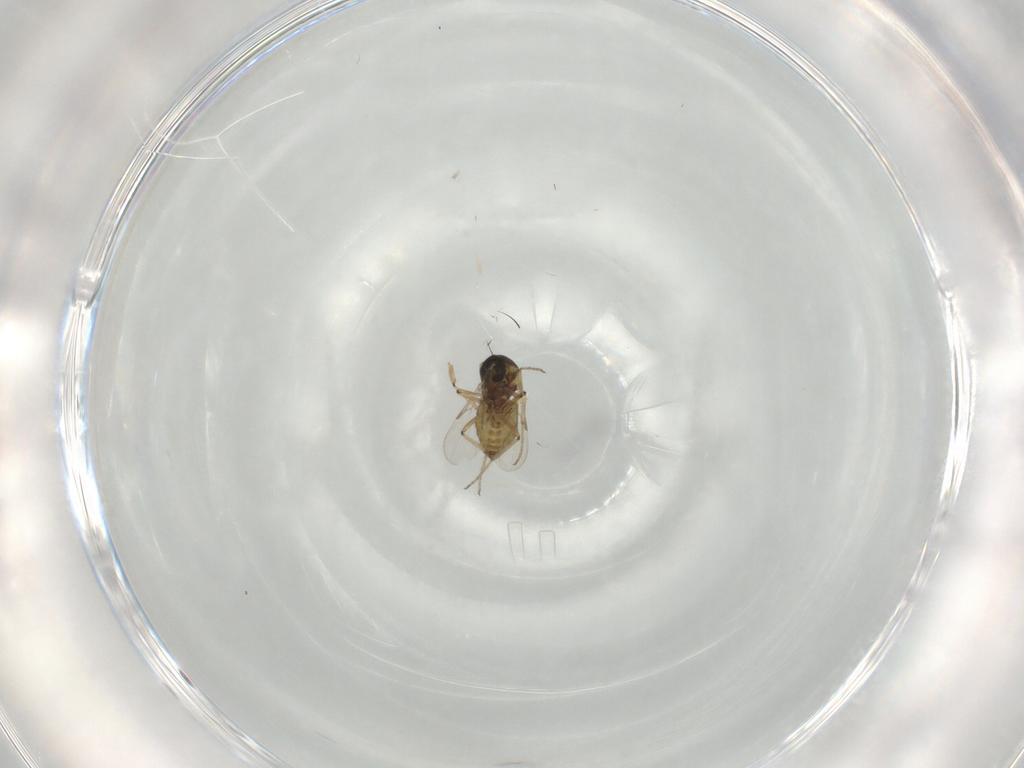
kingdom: Animalia
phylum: Arthropoda
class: Insecta
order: Diptera
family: Ceratopogonidae
